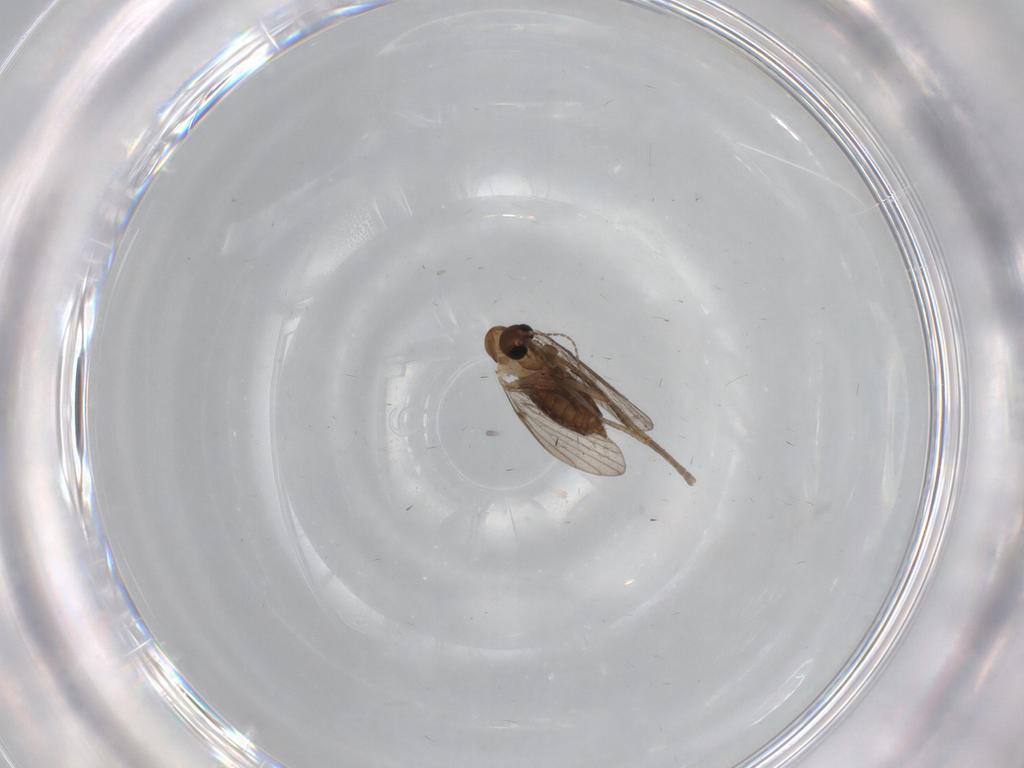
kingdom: Animalia
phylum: Arthropoda
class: Insecta
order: Diptera
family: Psychodidae
